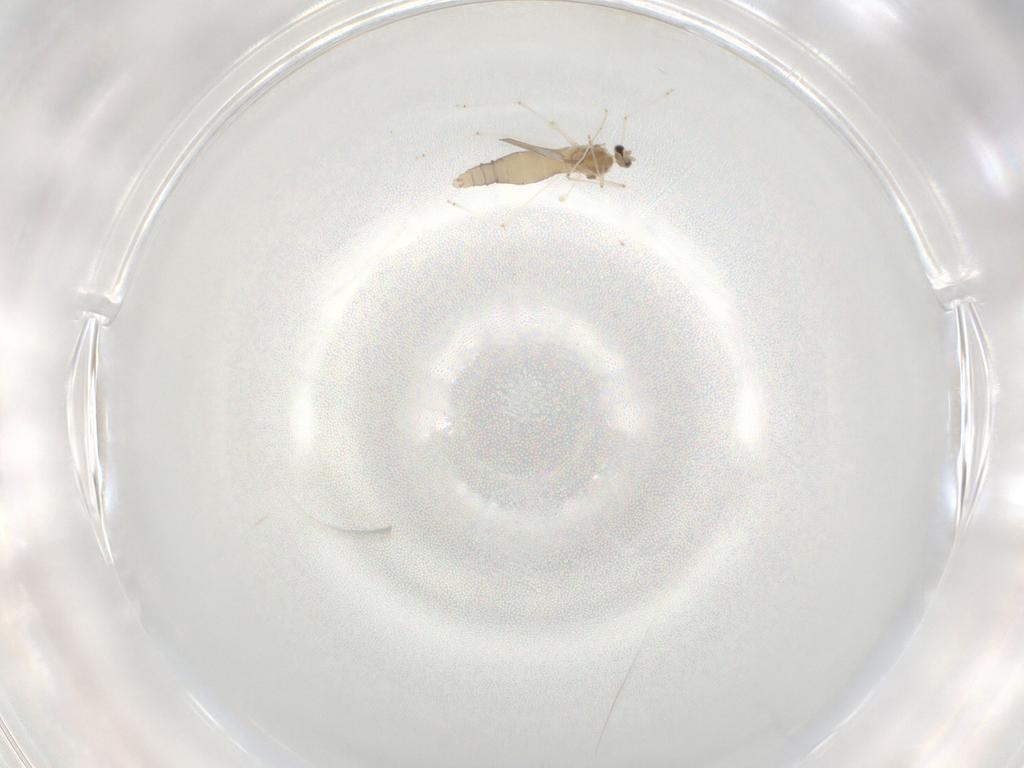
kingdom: Animalia
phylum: Arthropoda
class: Insecta
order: Diptera
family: Cecidomyiidae
